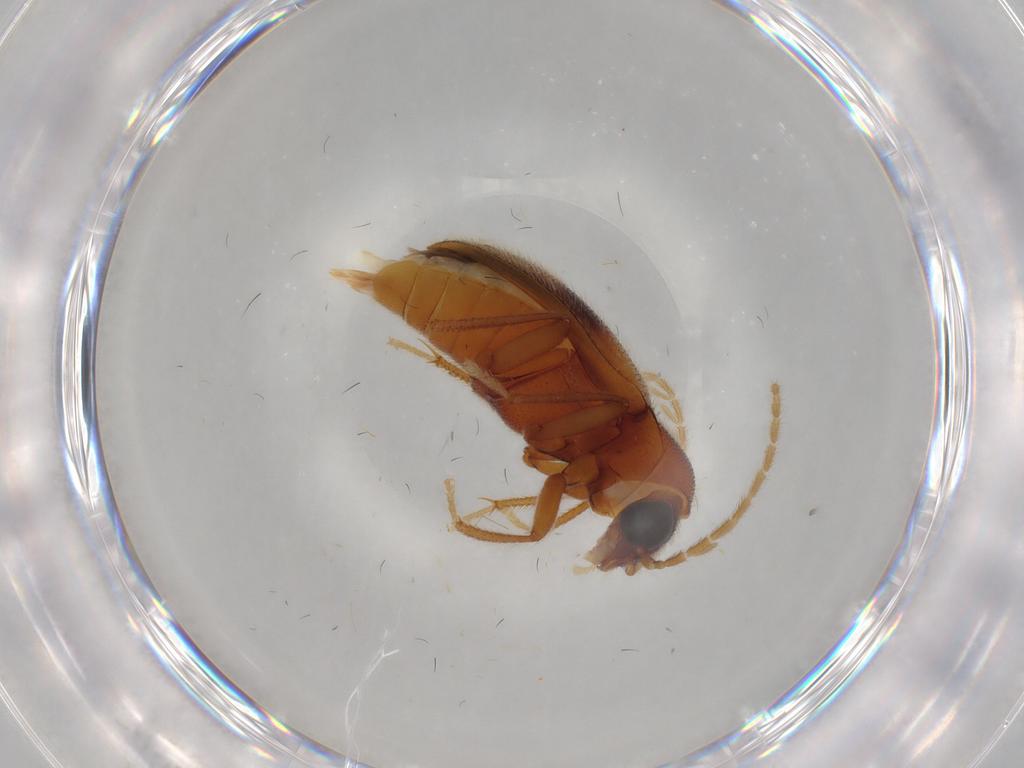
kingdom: Animalia
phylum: Arthropoda
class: Insecta
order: Coleoptera
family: Ptilodactylidae
